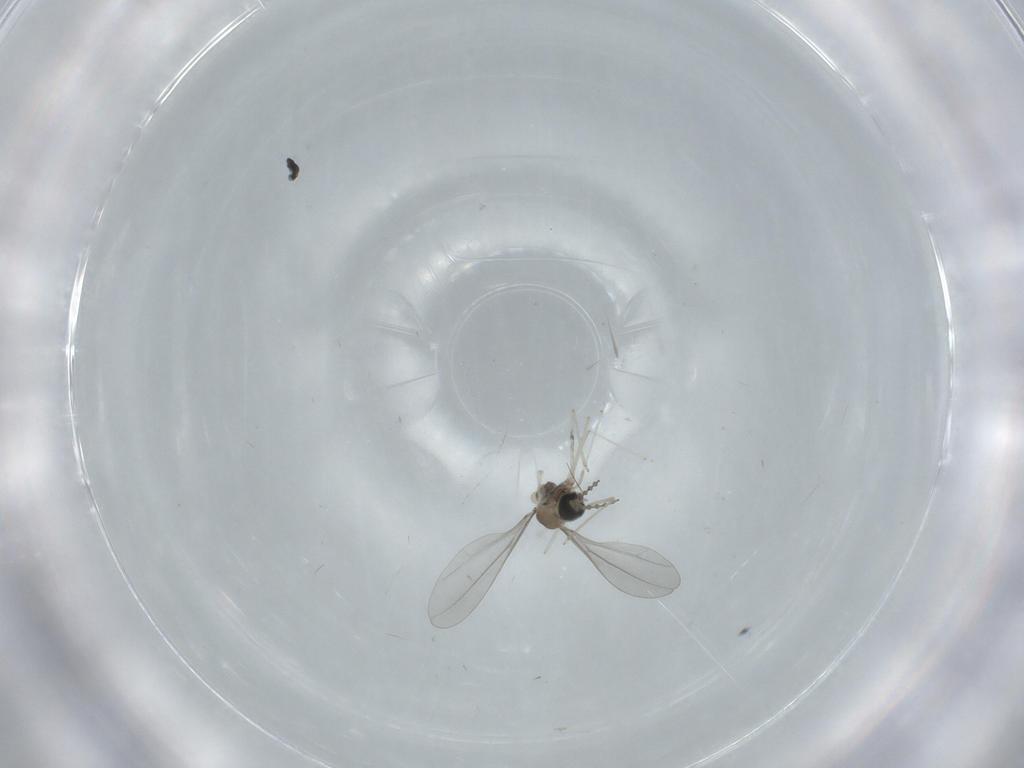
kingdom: Animalia
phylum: Arthropoda
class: Insecta
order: Diptera
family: Cecidomyiidae
